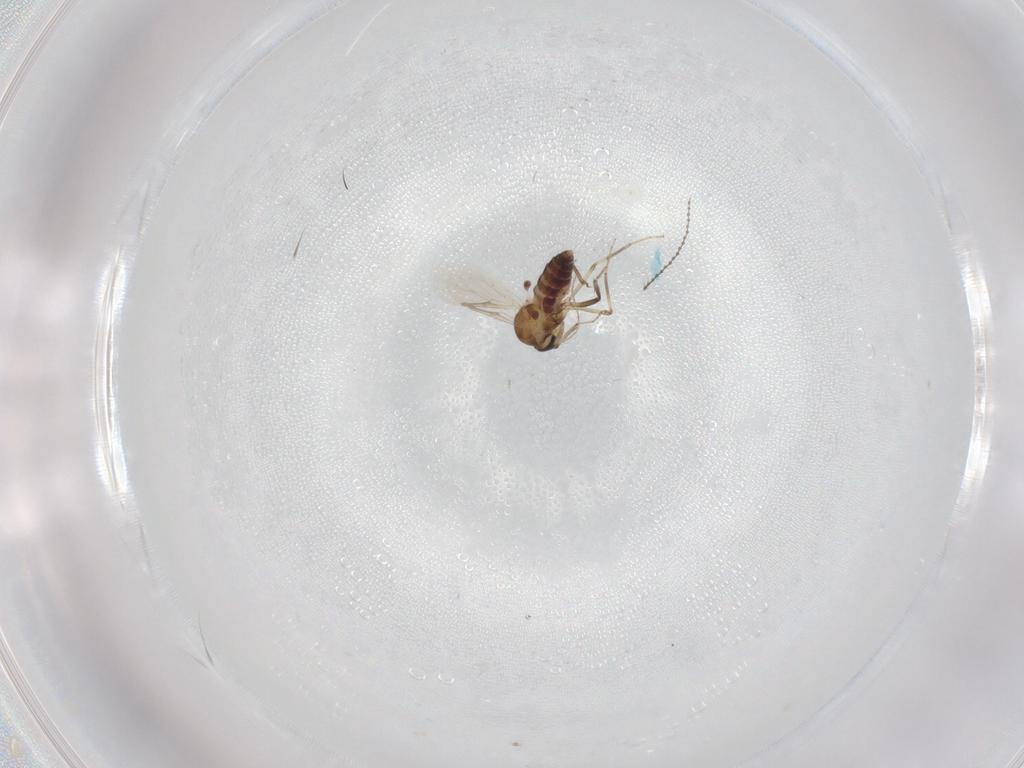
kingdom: Animalia
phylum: Arthropoda
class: Insecta
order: Diptera
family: Ceratopogonidae
